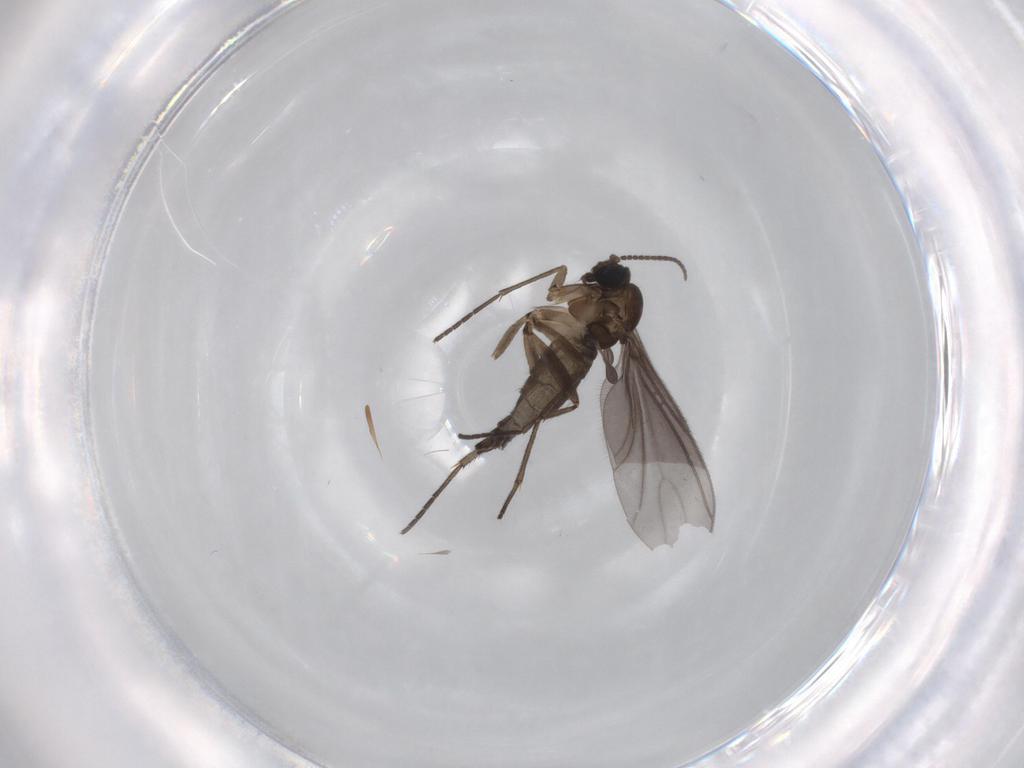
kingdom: Animalia
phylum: Arthropoda
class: Insecta
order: Diptera
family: Sciaridae
